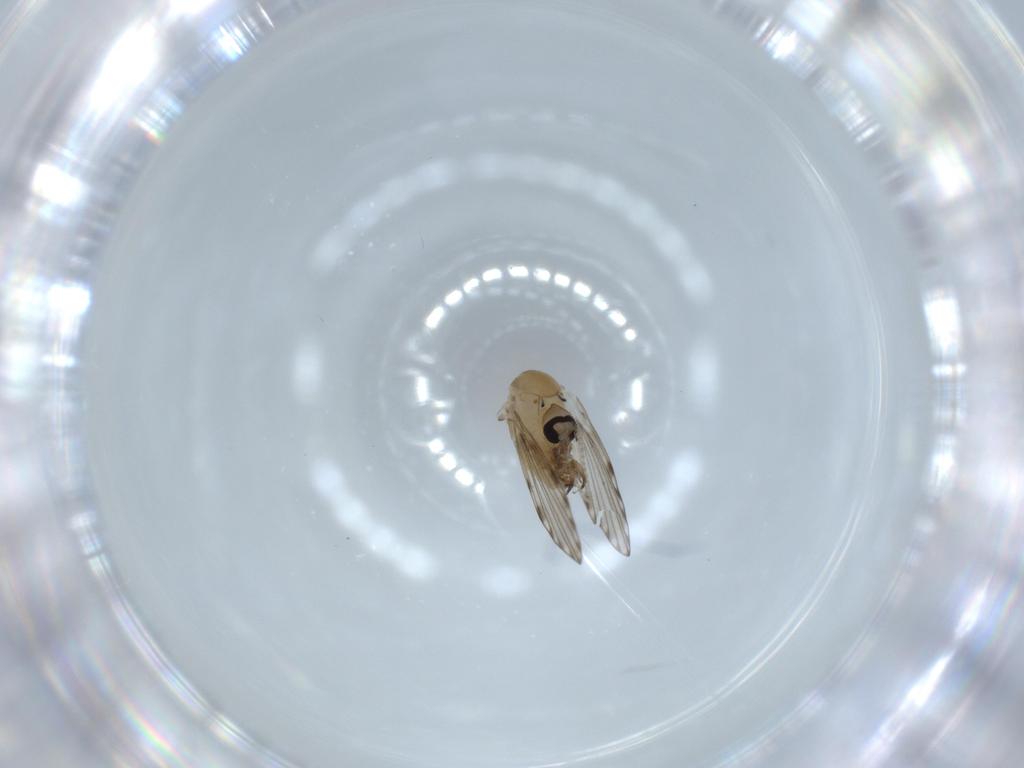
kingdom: Animalia
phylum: Arthropoda
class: Insecta
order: Diptera
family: Psychodidae
